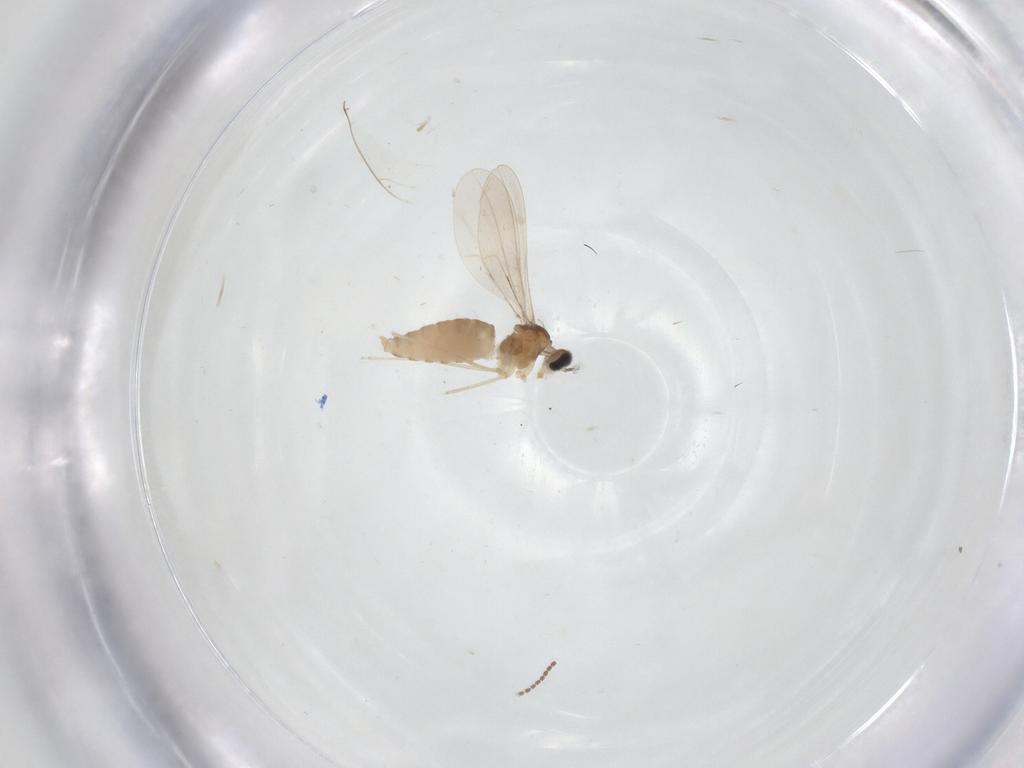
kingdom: Animalia
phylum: Arthropoda
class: Insecta
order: Diptera
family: Cecidomyiidae
